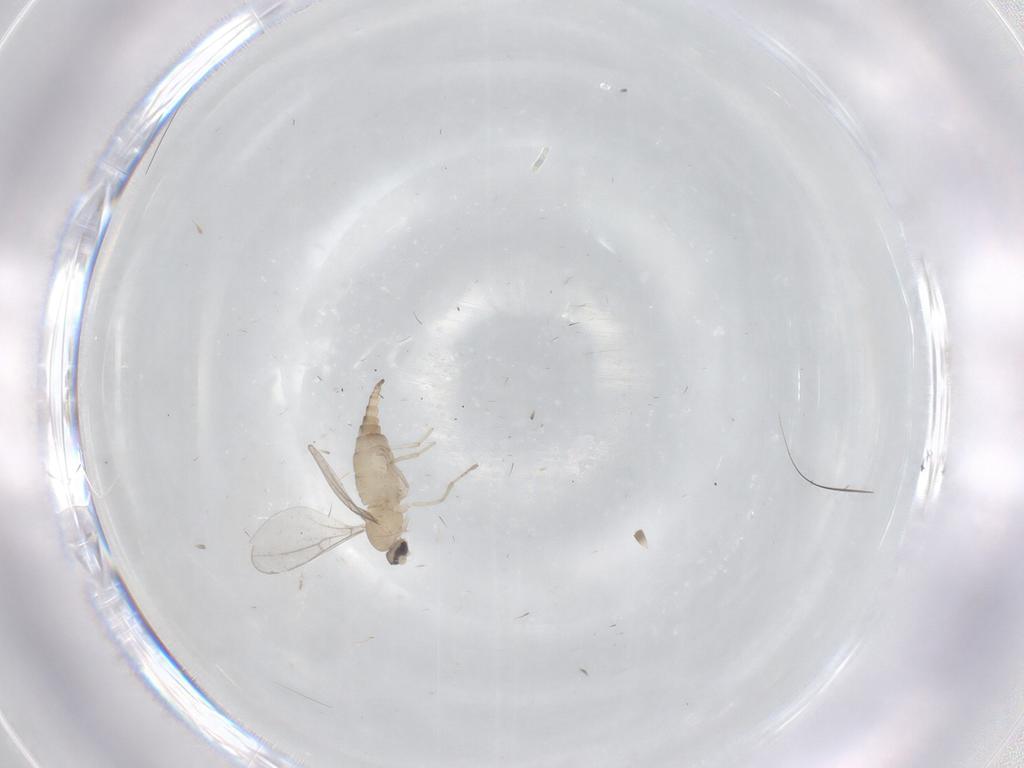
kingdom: Animalia
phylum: Arthropoda
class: Insecta
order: Diptera
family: Cecidomyiidae
